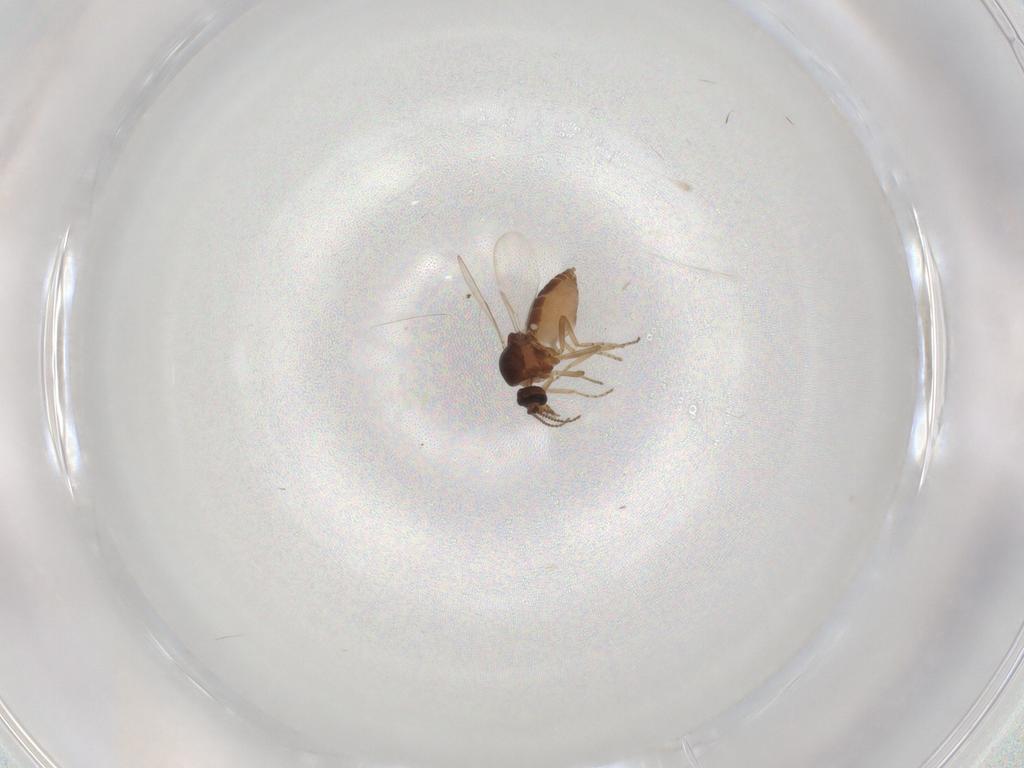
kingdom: Animalia
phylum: Arthropoda
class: Insecta
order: Diptera
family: Ceratopogonidae
